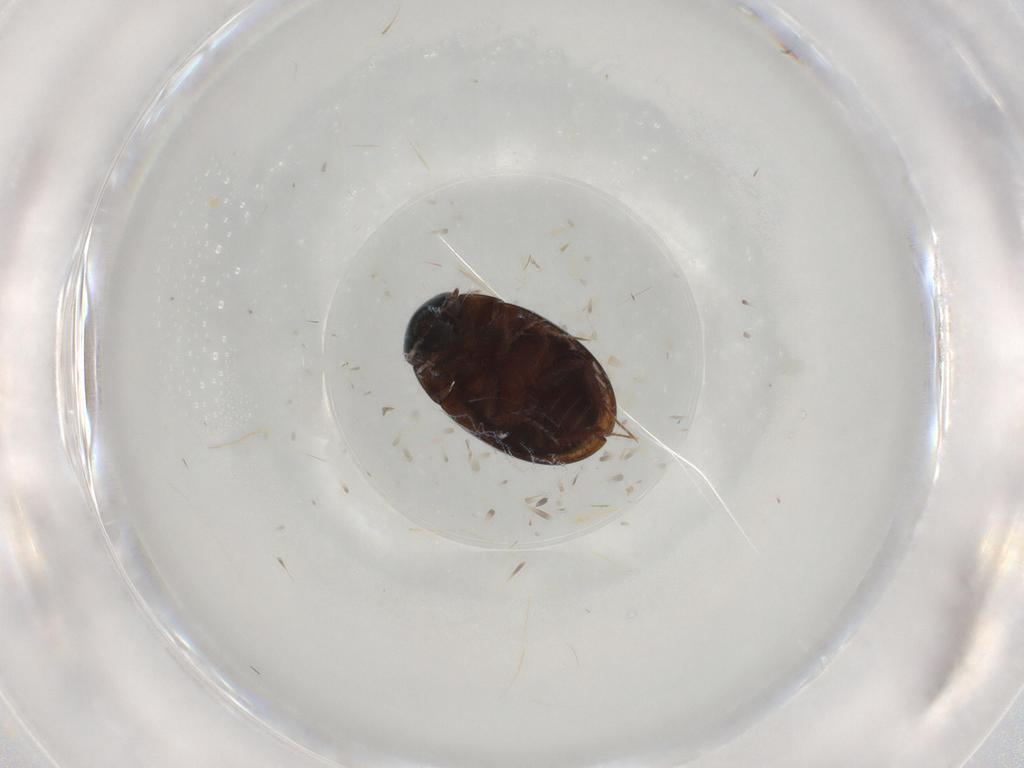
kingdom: Animalia
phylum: Arthropoda
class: Insecta
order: Coleoptera
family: Hydrophilidae
